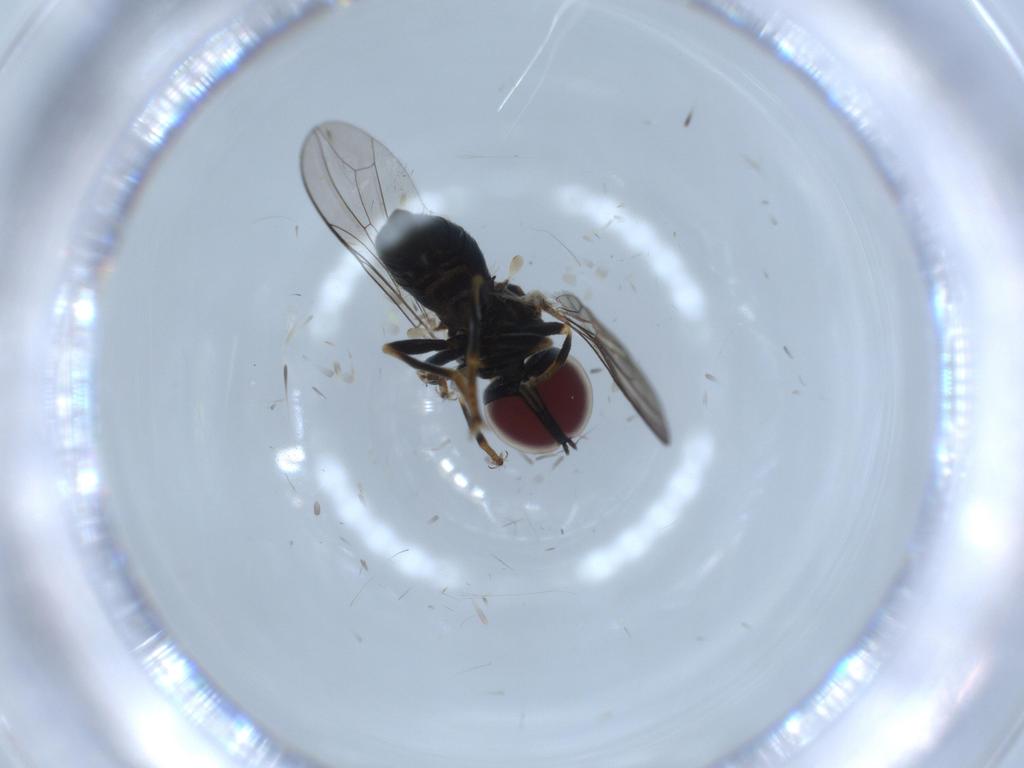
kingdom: Animalia
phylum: Arthropoda
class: Insecta
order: Diptera
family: Pipunculidae
